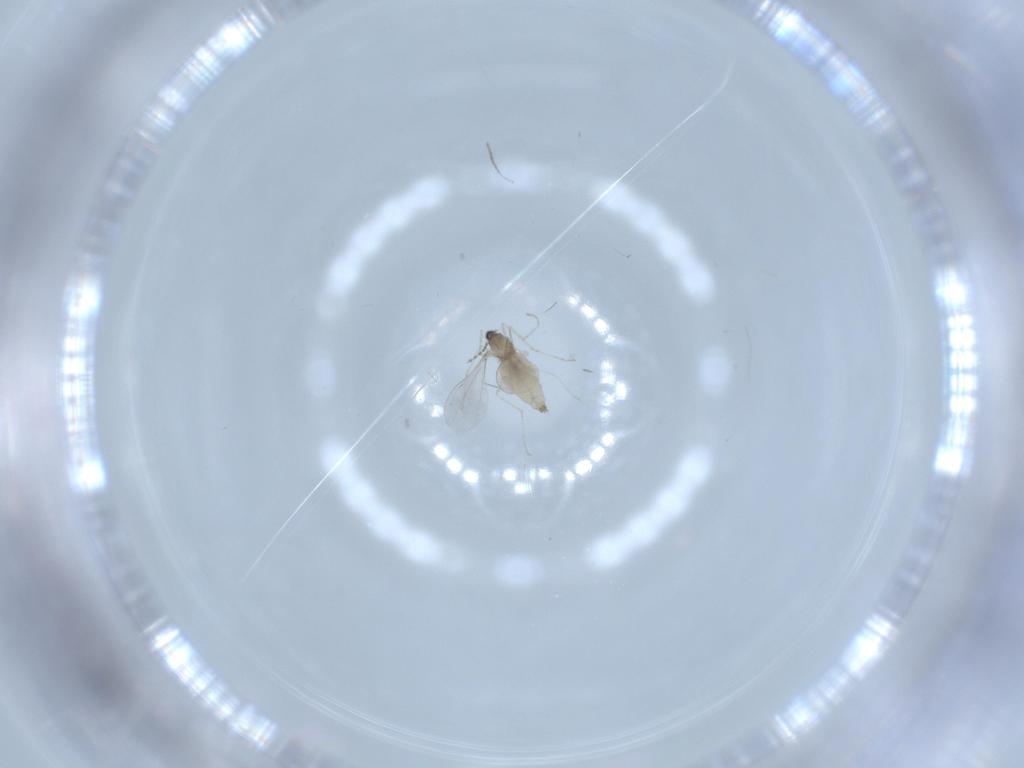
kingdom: Animalia
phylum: Arthropoda
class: Insecta
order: Diptera
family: Cecidomyiidae
